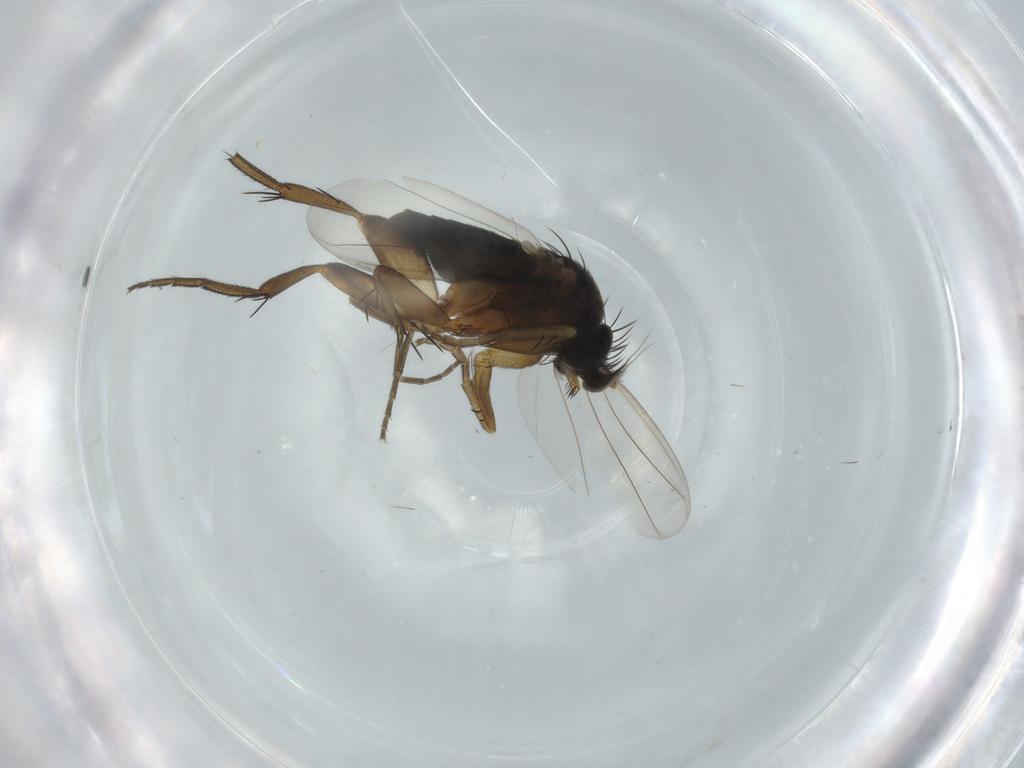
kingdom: Animalia
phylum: Arthropoda
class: Insecta
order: Diptera
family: Phoridae
